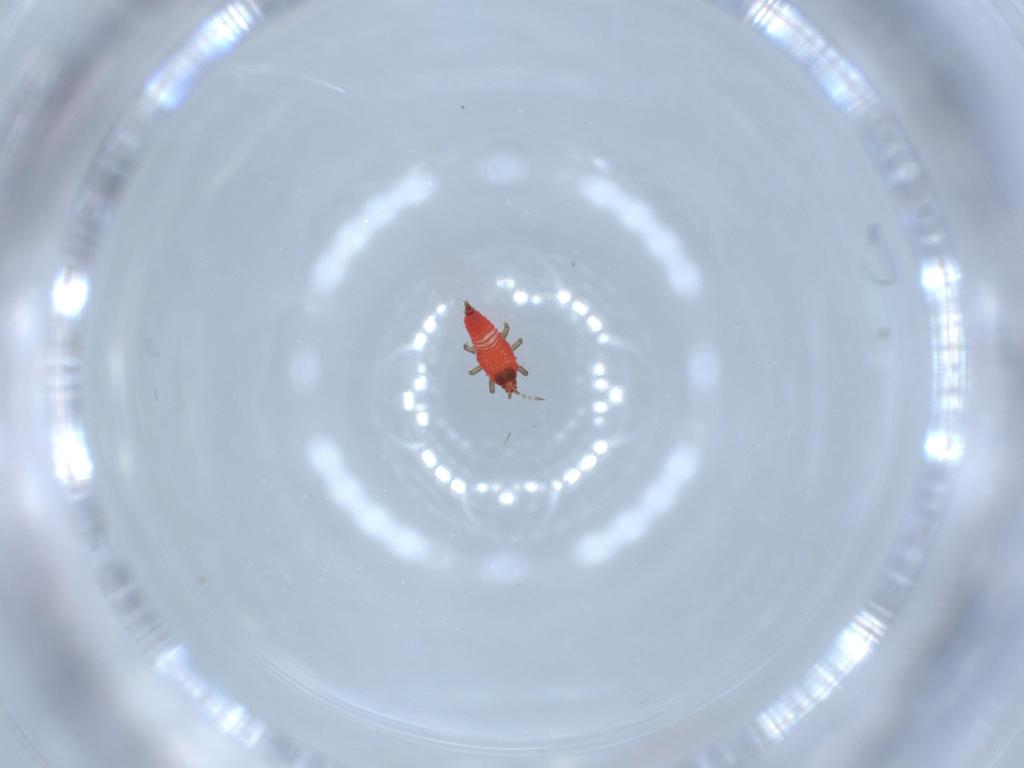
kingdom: Animalia
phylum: Arthropoda
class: Insecta
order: Thysanoptera
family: Phlaeothripidae
